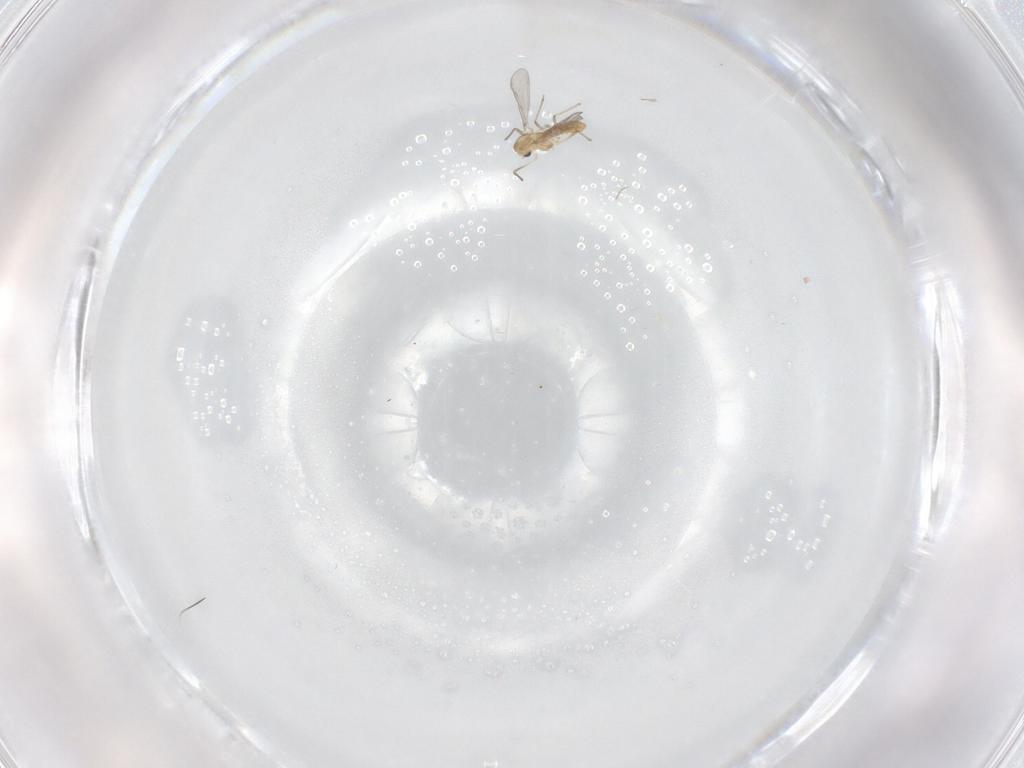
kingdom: Animalia
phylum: Arthropoda
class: Insecta
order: Diptera
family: Chironomidae
